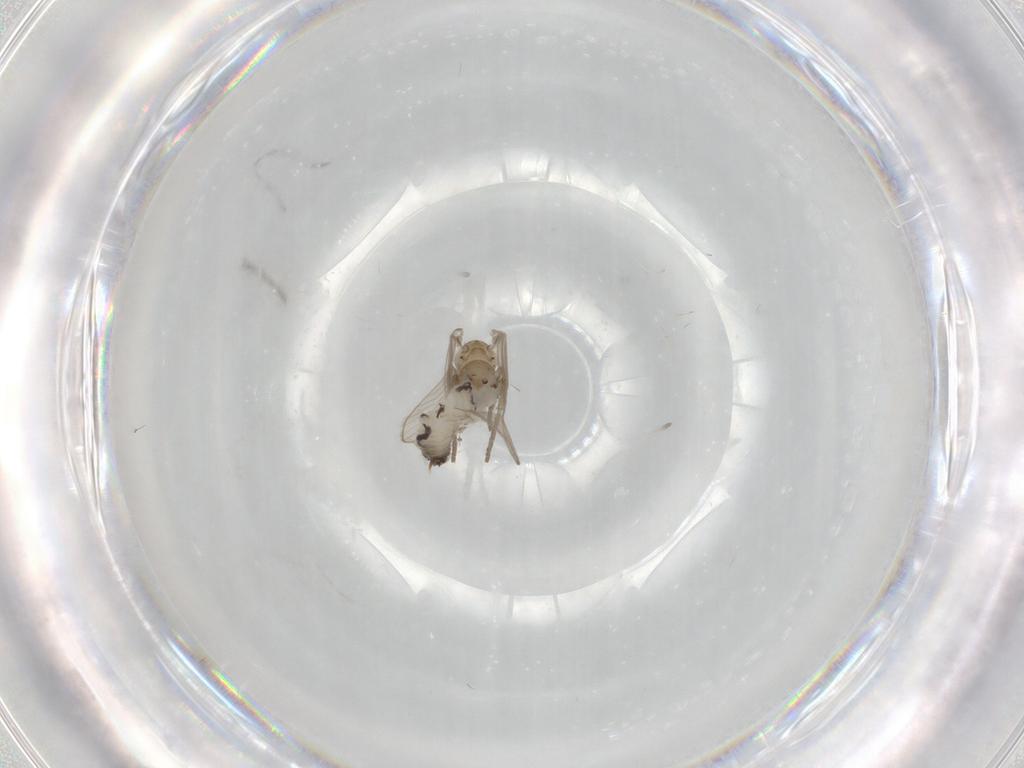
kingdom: Animalia
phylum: Arthropoda
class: Insecta
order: Diptera
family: Psychodidae
